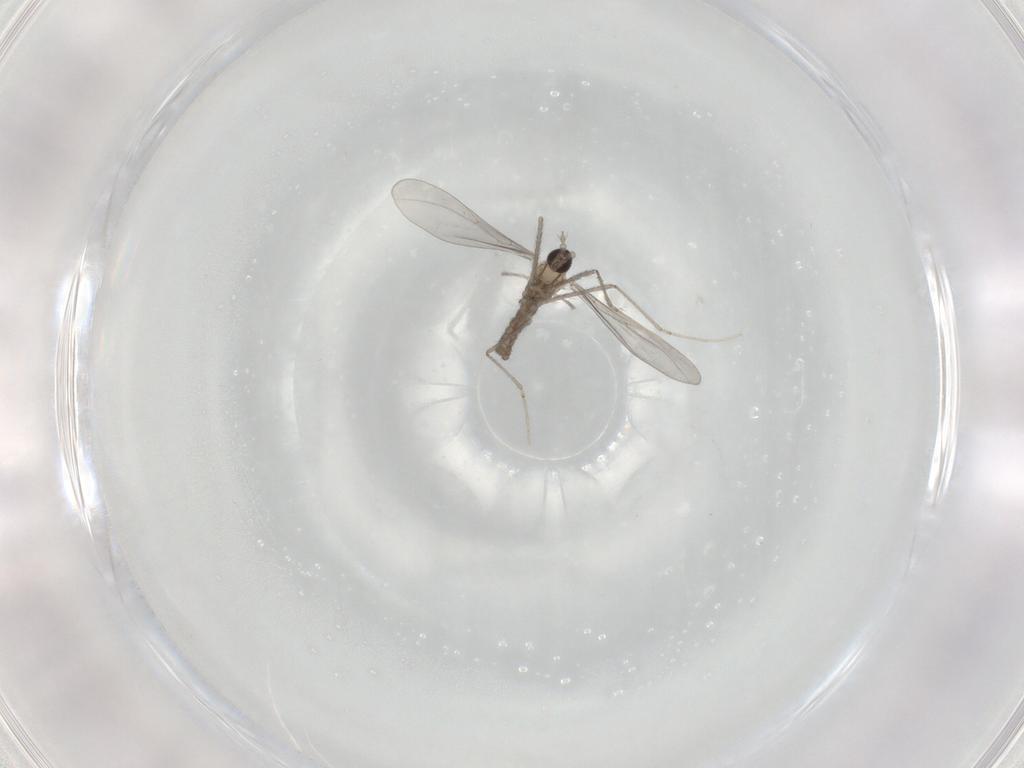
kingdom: Animalia
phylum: Arthropoda
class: Insecta
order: Diptera
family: Cecidomyiidae
